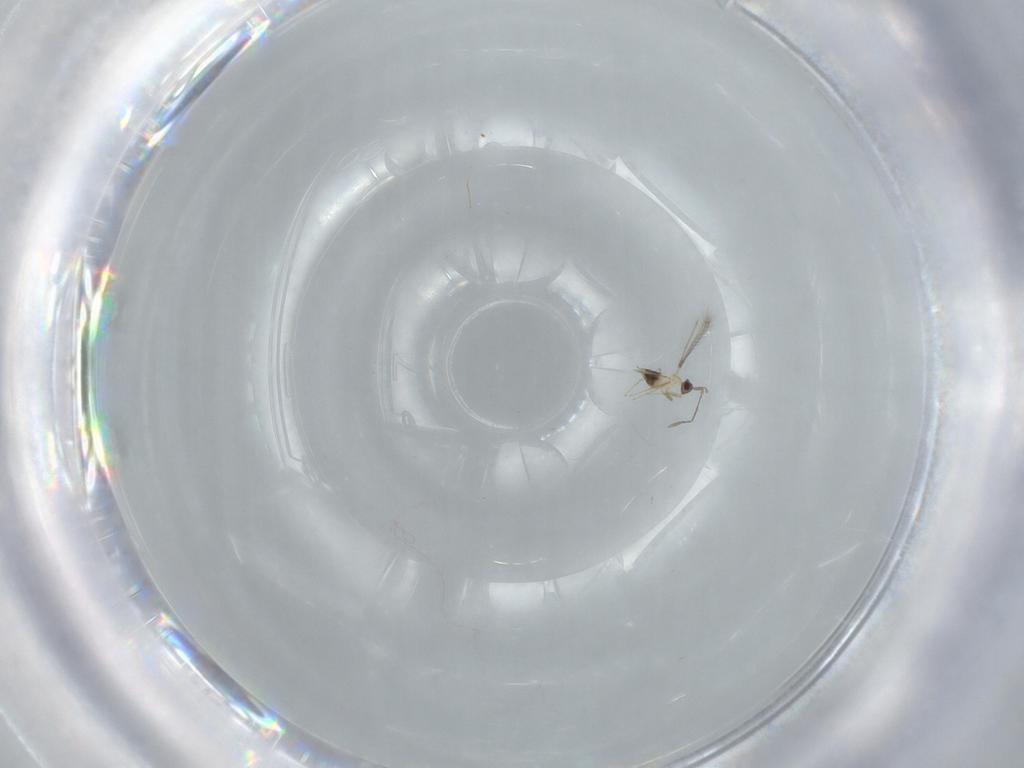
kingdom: Animalia
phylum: Arthropoda
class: Insecta
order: Hymenoptera
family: Mymaridae
